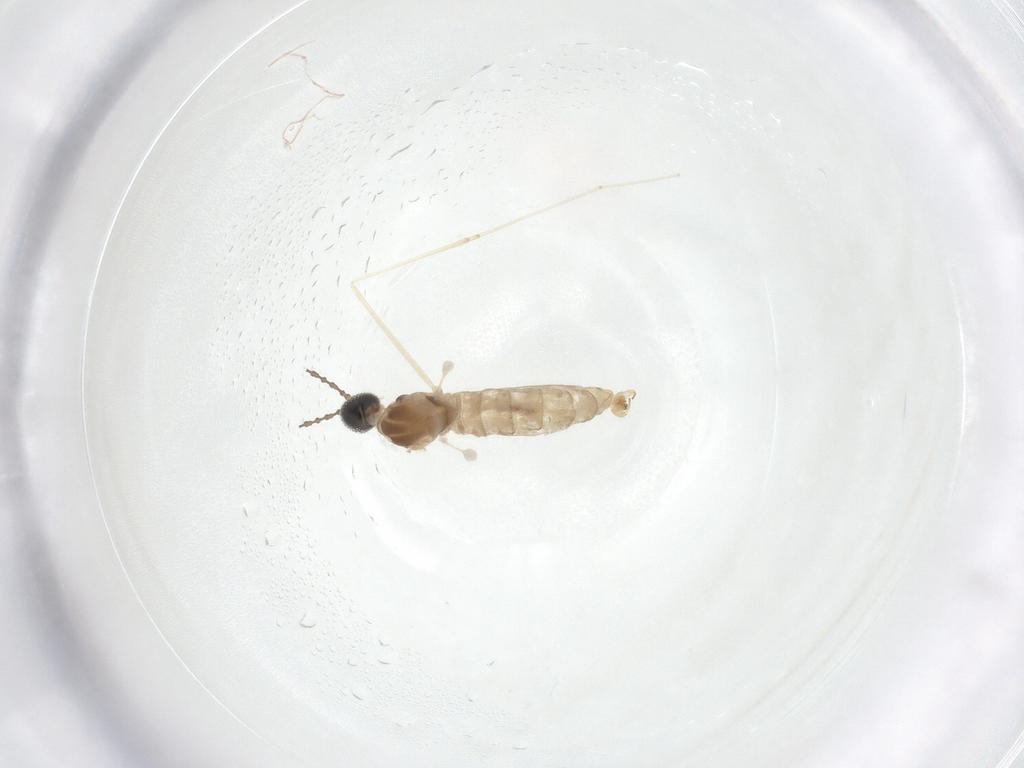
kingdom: Animalia
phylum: Arthropoda
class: Insecta
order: Diptera
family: Cecidomyiidae
